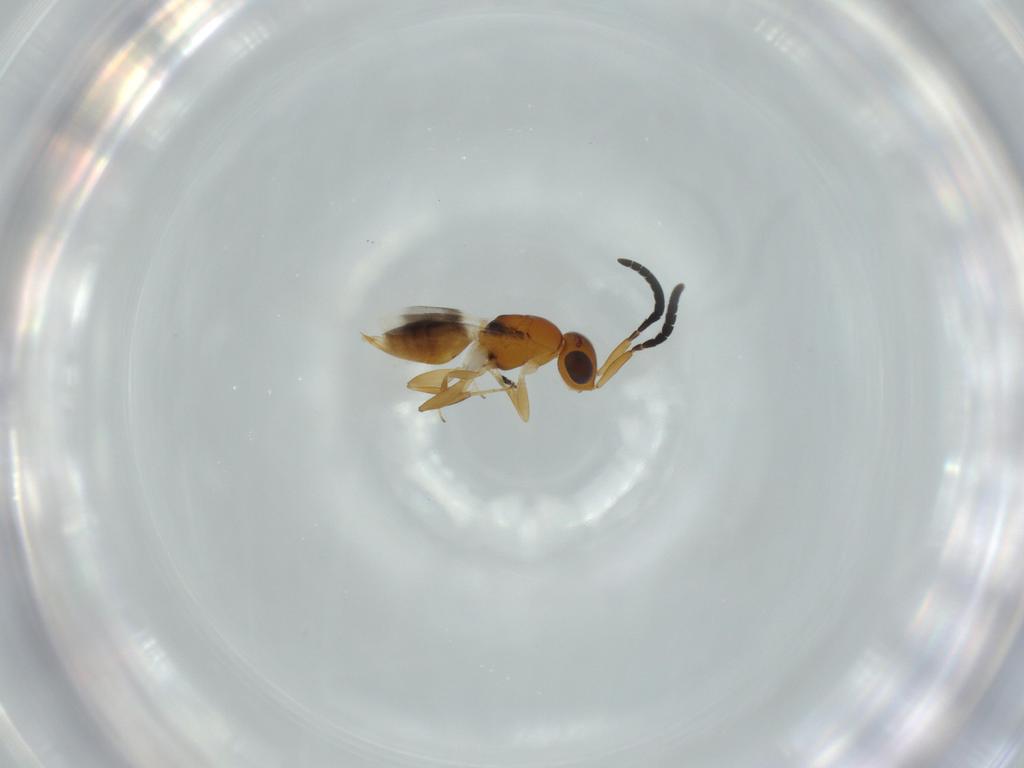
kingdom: Animalia
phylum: Arthropoda
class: Insecta
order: Hymenoptera
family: Megaspilidae
